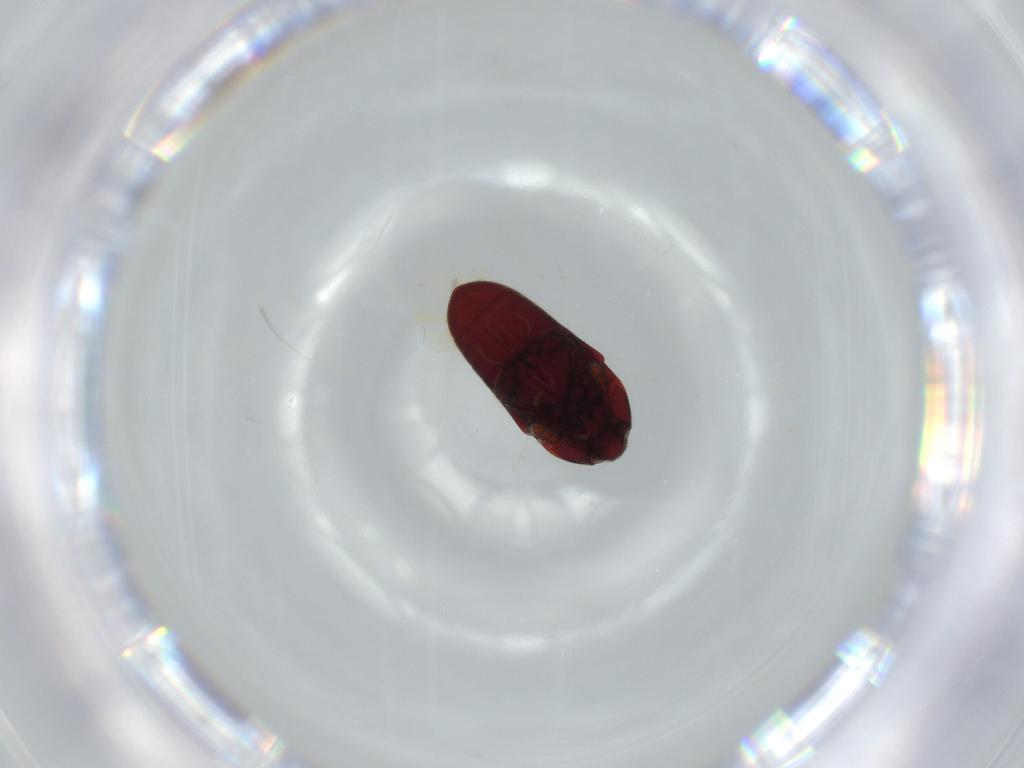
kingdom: Animalia
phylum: Arthropoda
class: Insecta
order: Coleoptera
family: Throscidae
